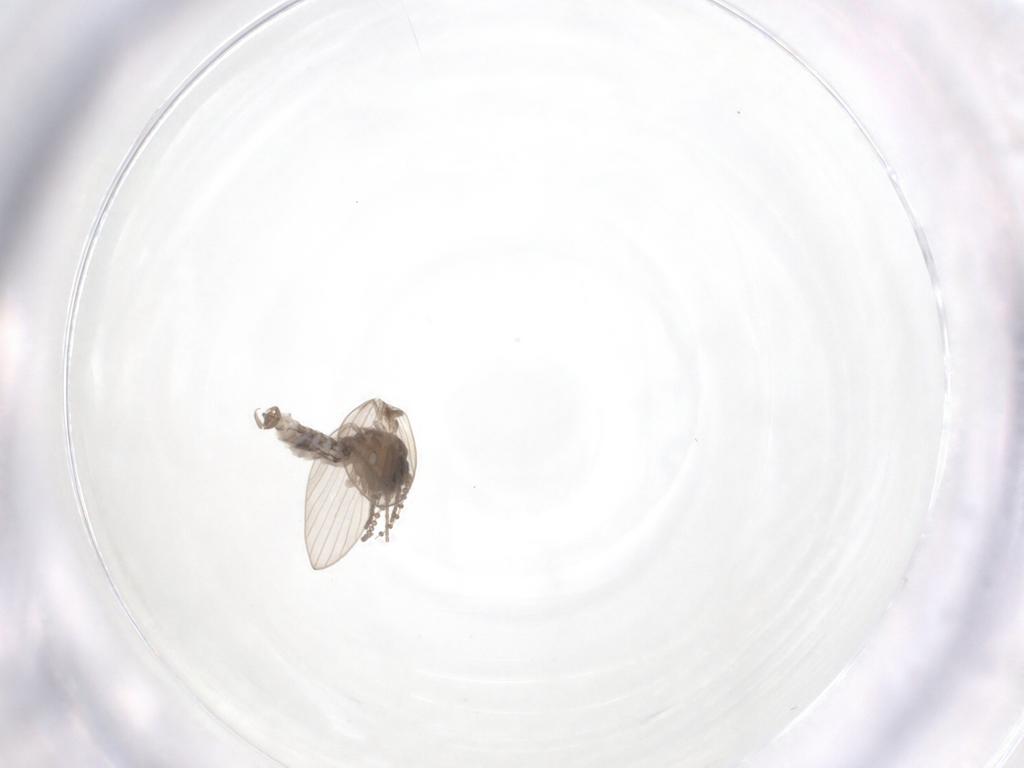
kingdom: Animalia
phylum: Arthropoda
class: Insecta
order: Diptera
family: Psychodidae
